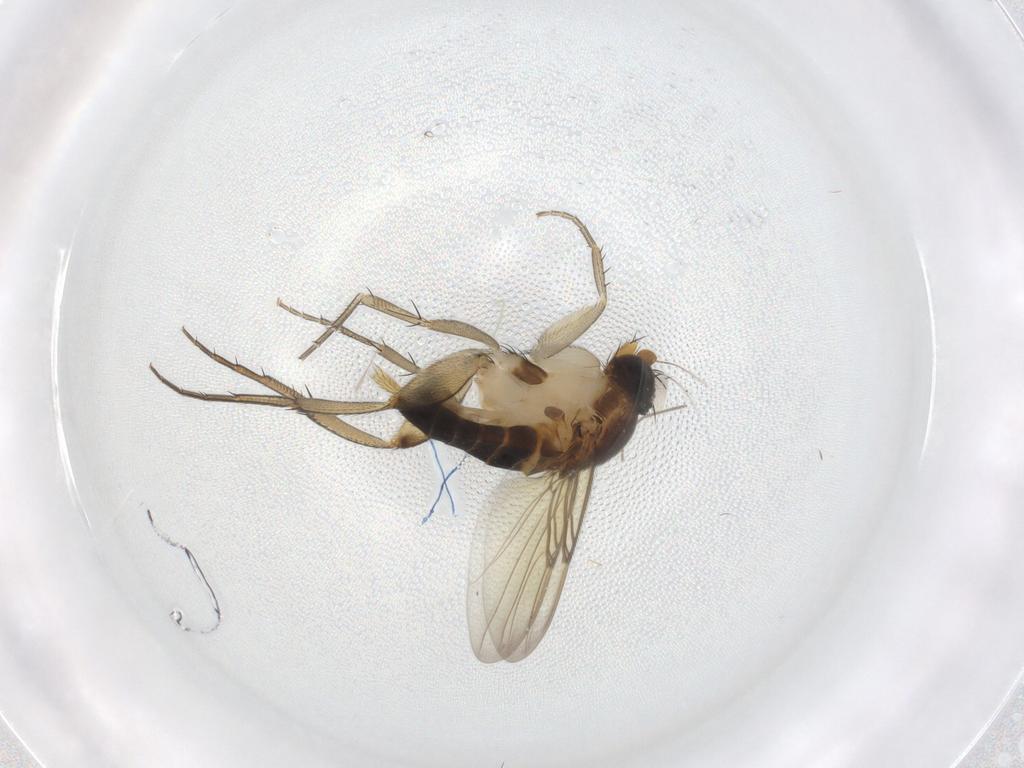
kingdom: Animalia
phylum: Arthropoda
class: Insecta
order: Diptera
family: Phoridae
